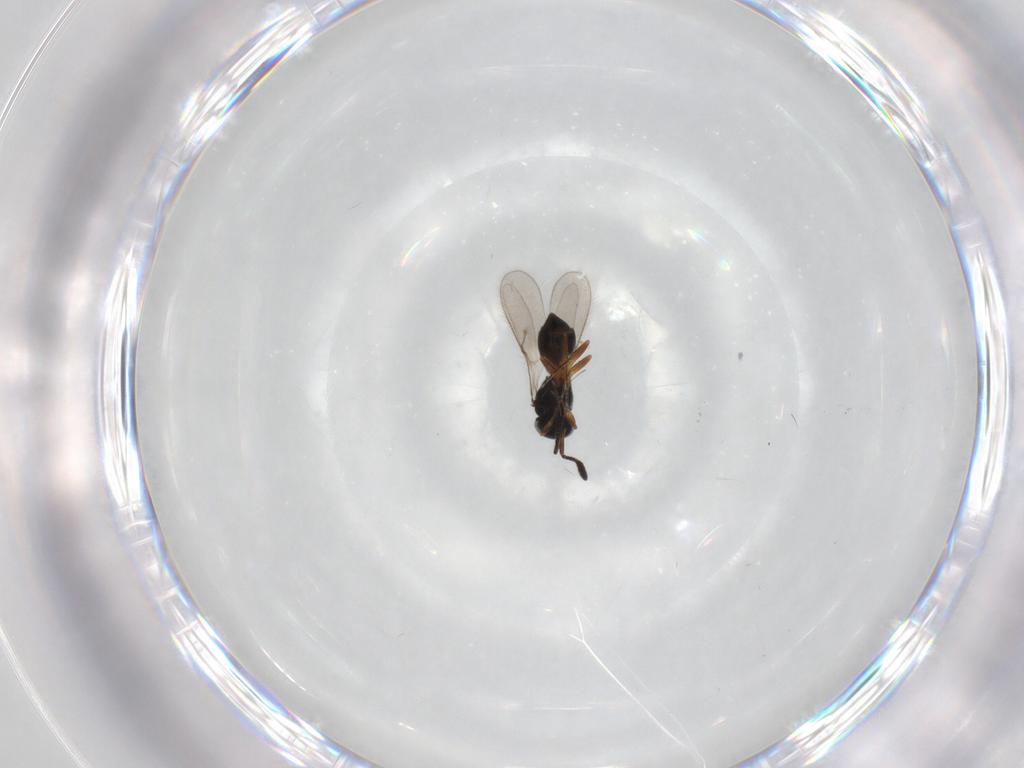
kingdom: Animalia
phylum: Arthropoda
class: Insecta
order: Hymenoptera
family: Scelionidae
